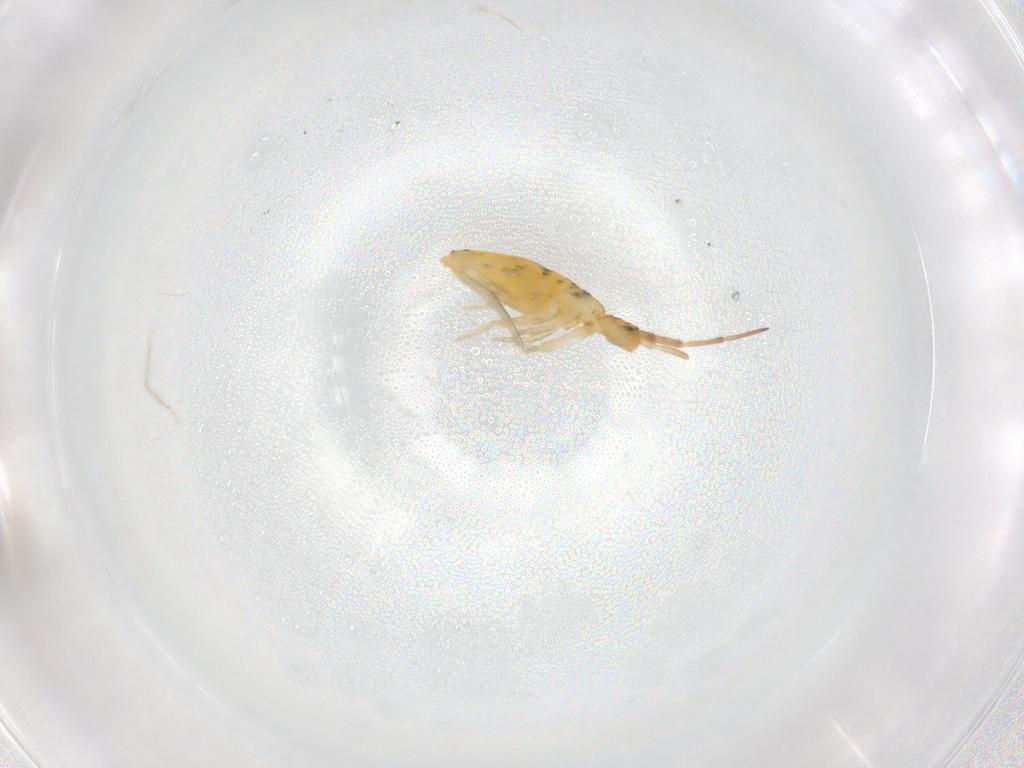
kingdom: Animalia
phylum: Arthropoda
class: Collembola
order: Entomobryomorpha
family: Entomobryidae
